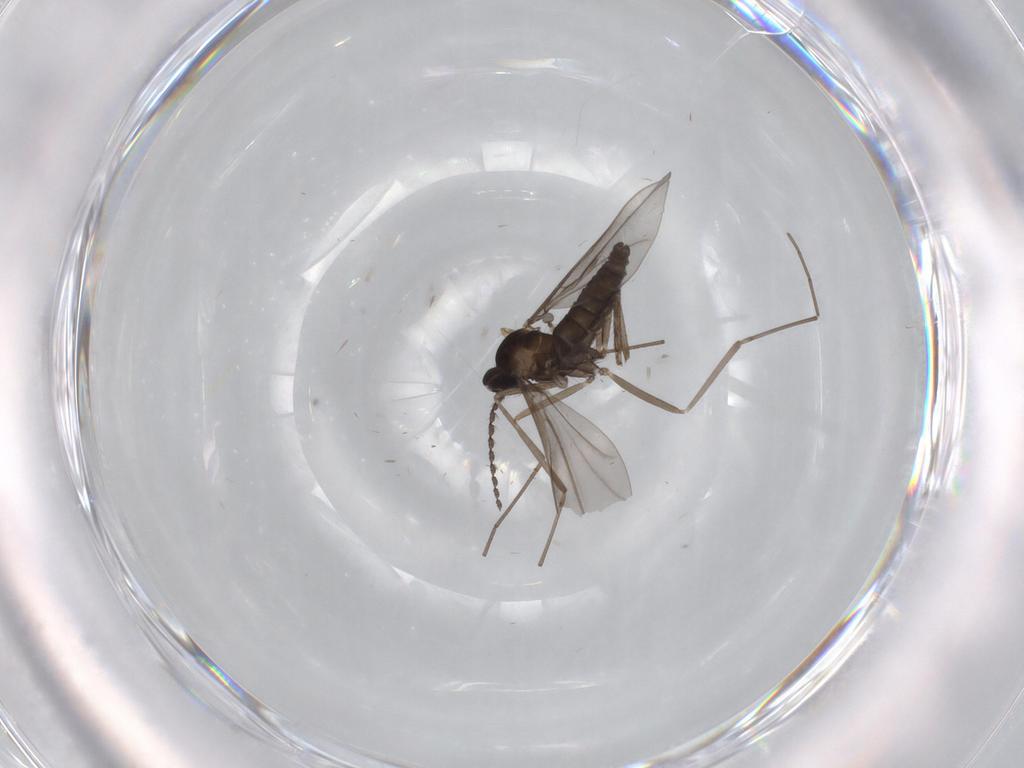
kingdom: Animalia
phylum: Arthropoda
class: Insecta
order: Diptera
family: Cecidomyiidae
